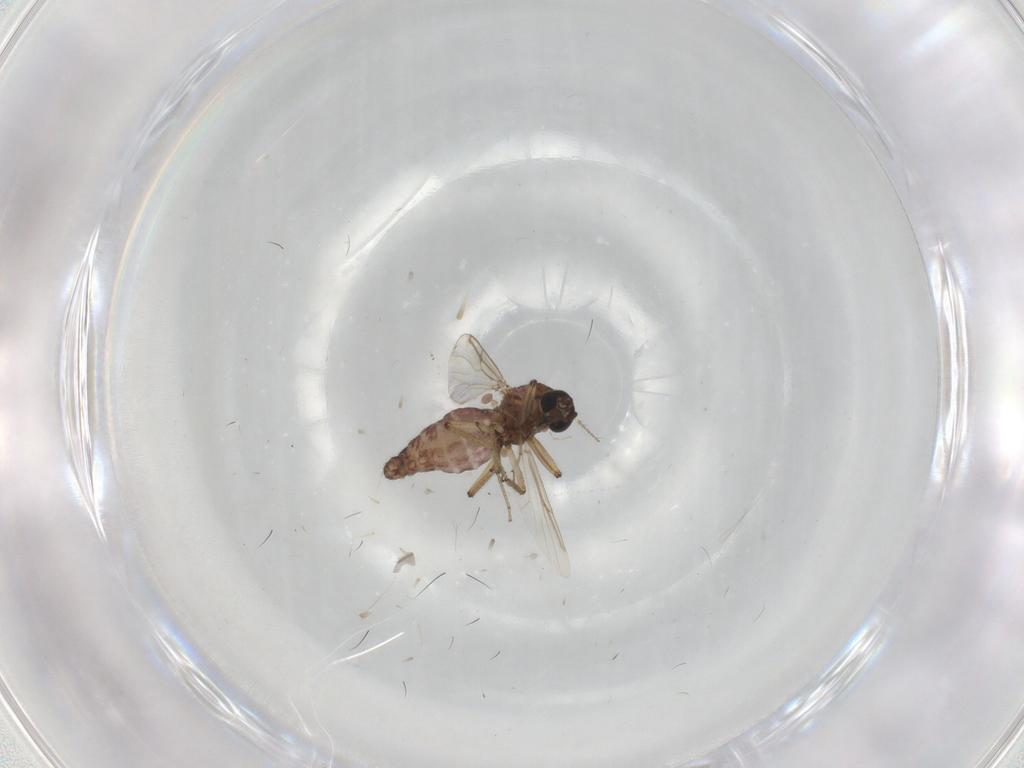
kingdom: Animalia
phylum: Arthropoda
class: Insecta
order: Diptera
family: Ceratopogonidae
